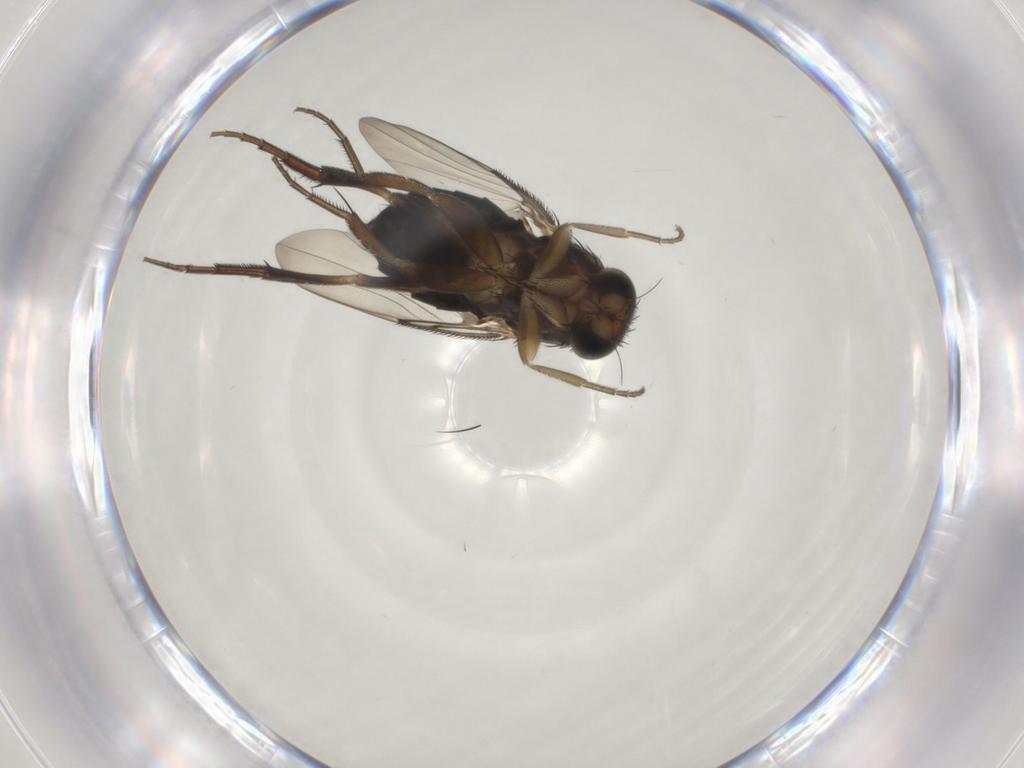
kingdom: Animalia
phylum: Arthropoda
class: Insecta
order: Diptera
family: Phoridae
